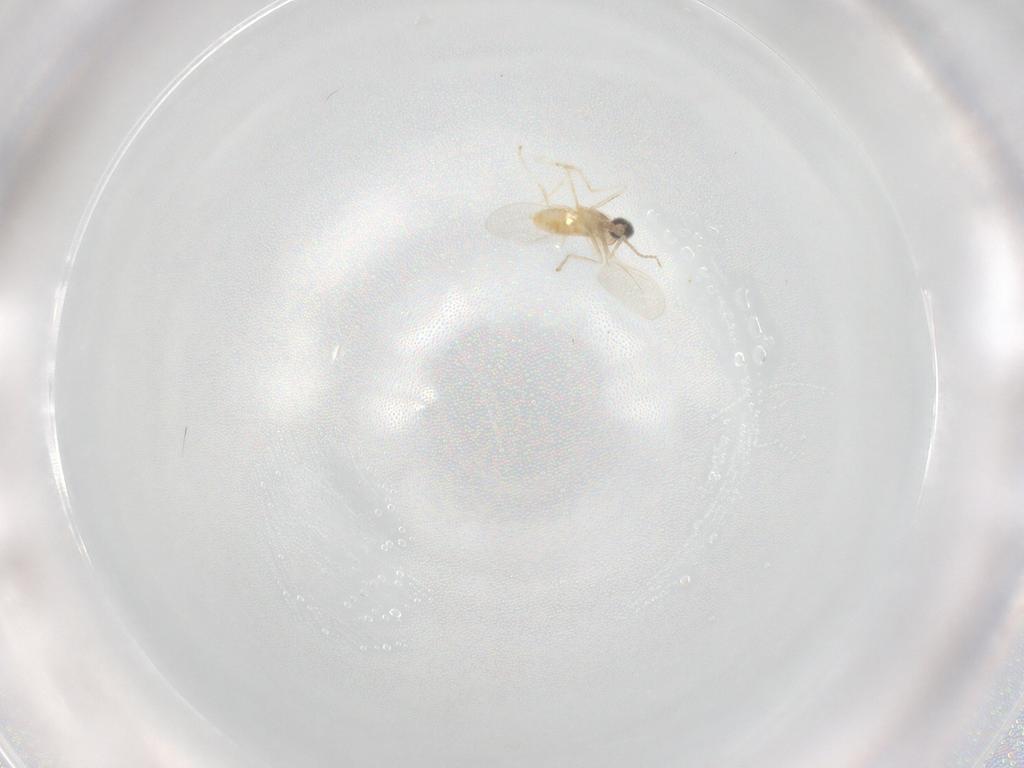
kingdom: Animalia
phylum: Arthropoda
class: Insecta
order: Diptera
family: Cecidomyiidae
